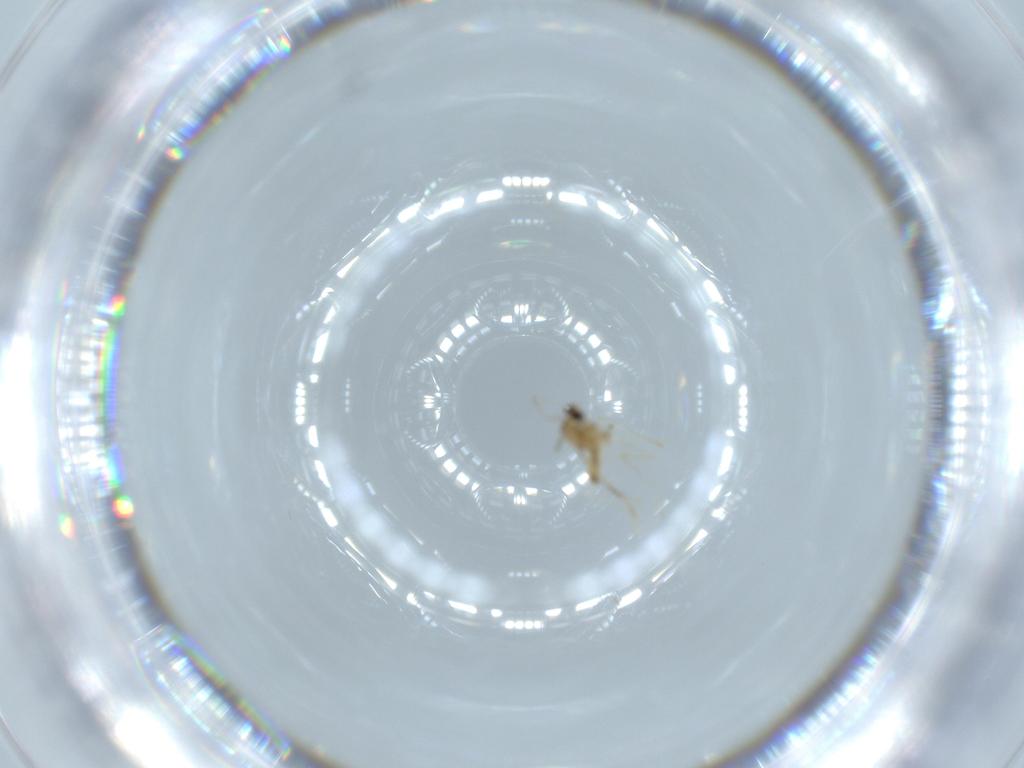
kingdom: Animalia
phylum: Arthropoda
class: Insecta
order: Diptera
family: Cecidomyiidae
